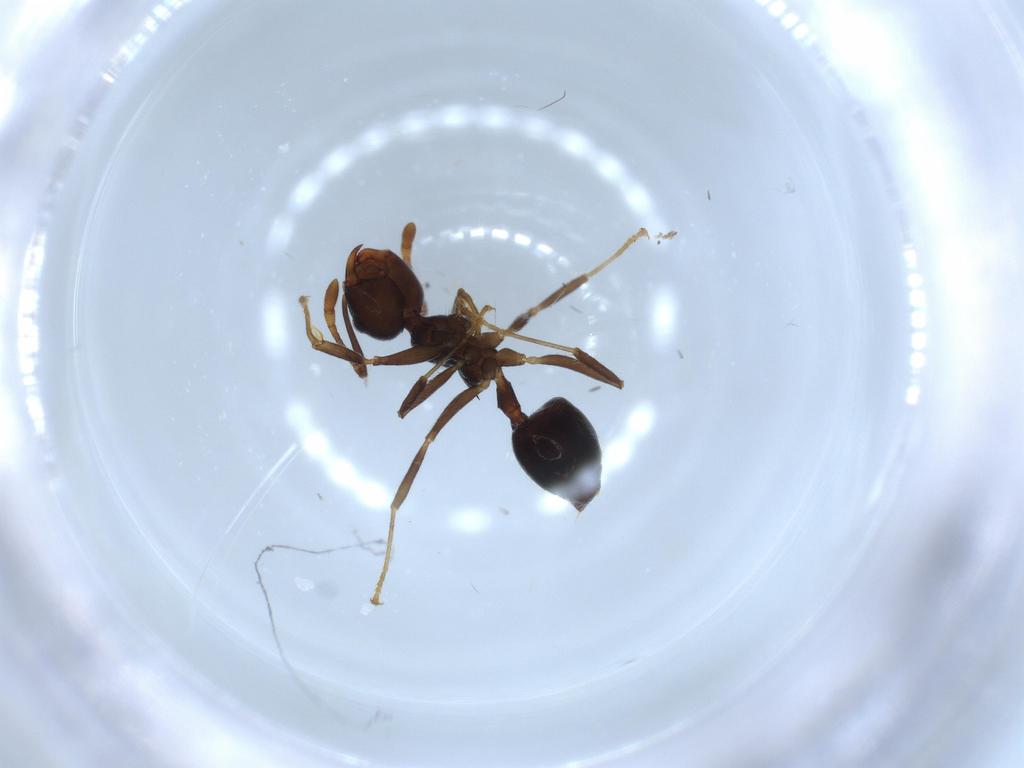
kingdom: Animalia
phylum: Arthropoda
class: Insecta
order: Hymenoptera
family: Formicidae
